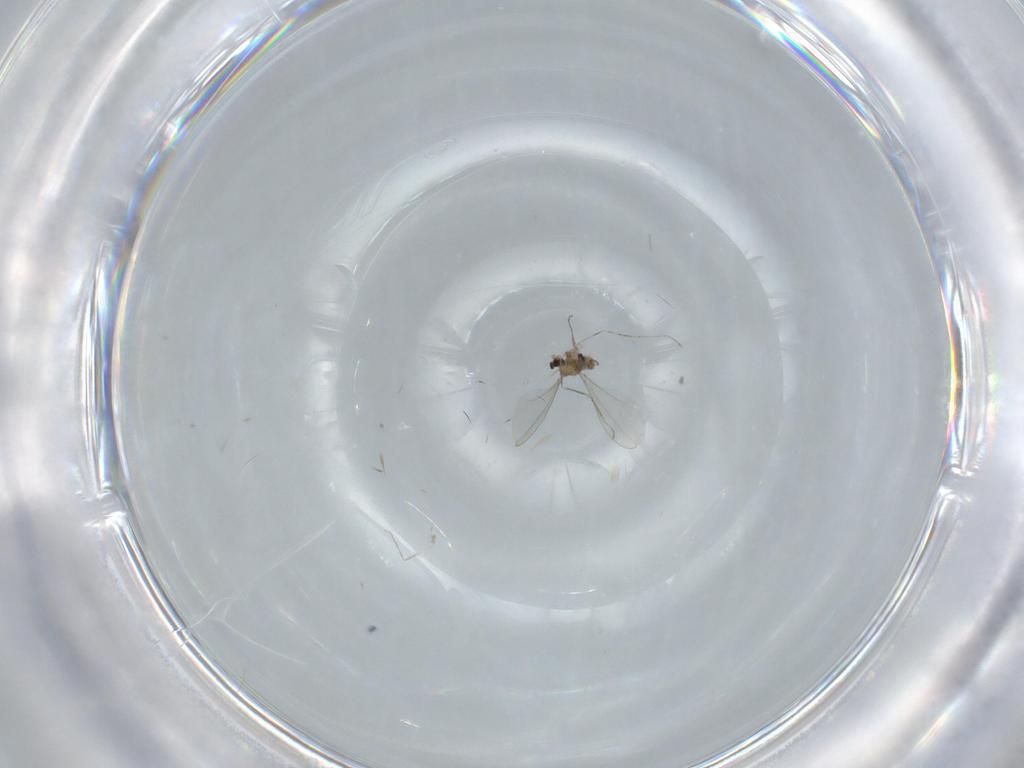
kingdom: Animalia
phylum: Arthropoda
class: Insecta
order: Diptera
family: Cecidomyiidae
